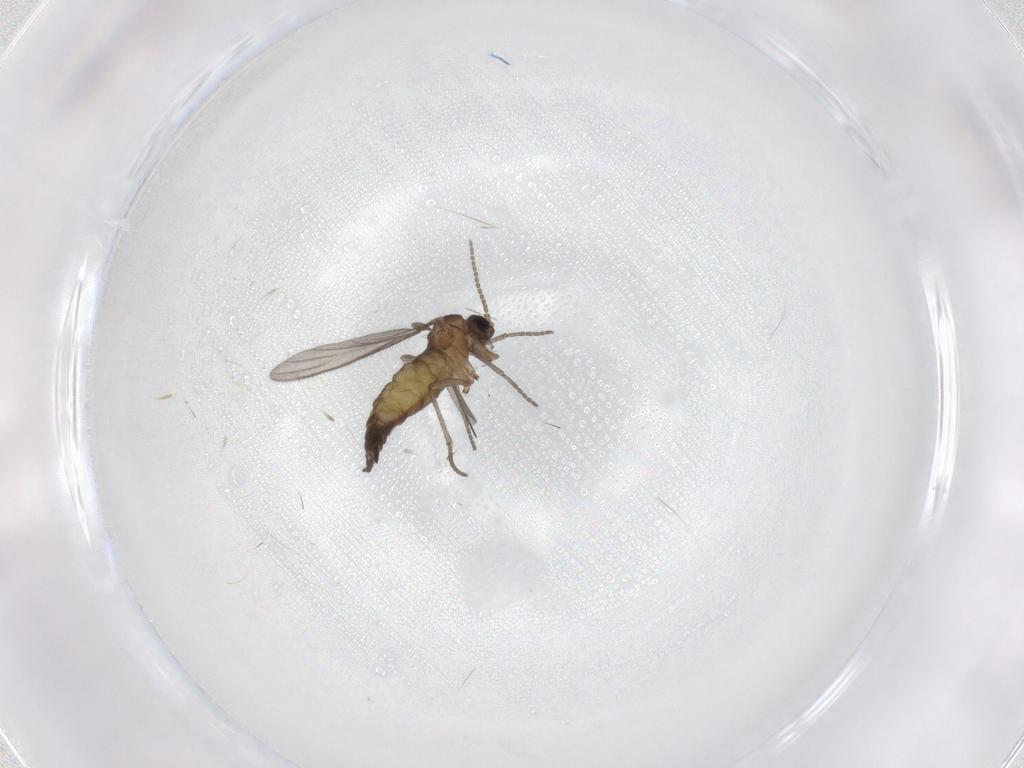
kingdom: Animalia
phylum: Arthropoda
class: Insecta
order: Diptera
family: Sciaridae
